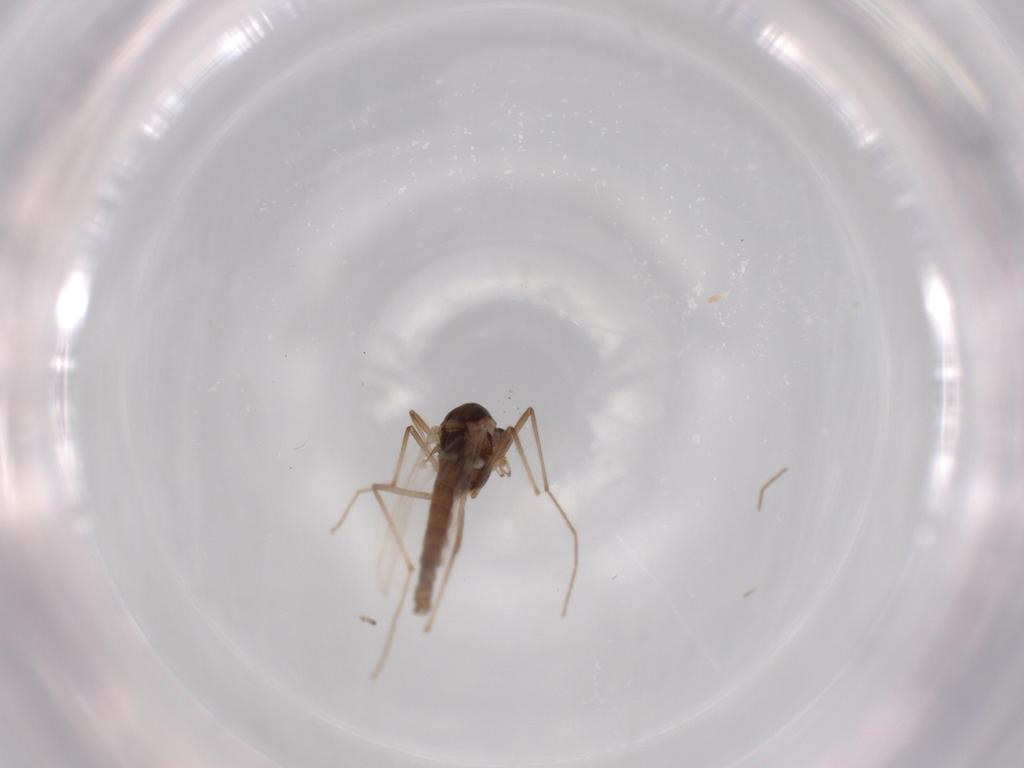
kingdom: Animalia
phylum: Arthropoda
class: Insecta
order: Diptera
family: Chironomidae
